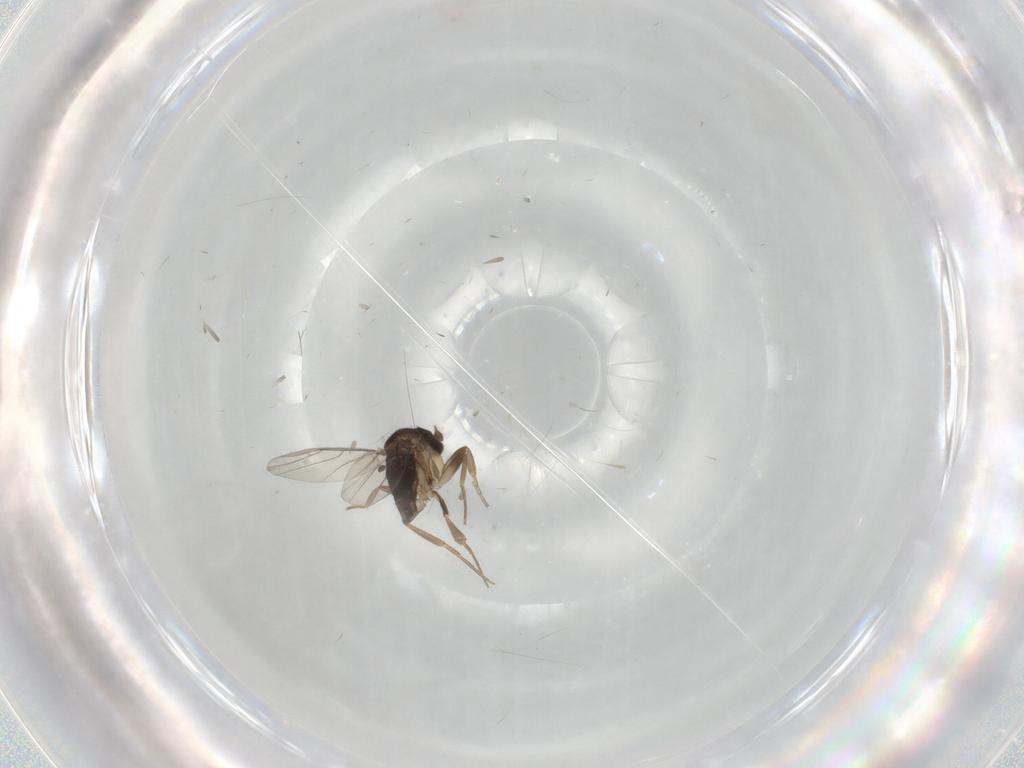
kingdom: Animalia
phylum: Arthropoda
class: Insecta
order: Diptera
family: Phoridae
